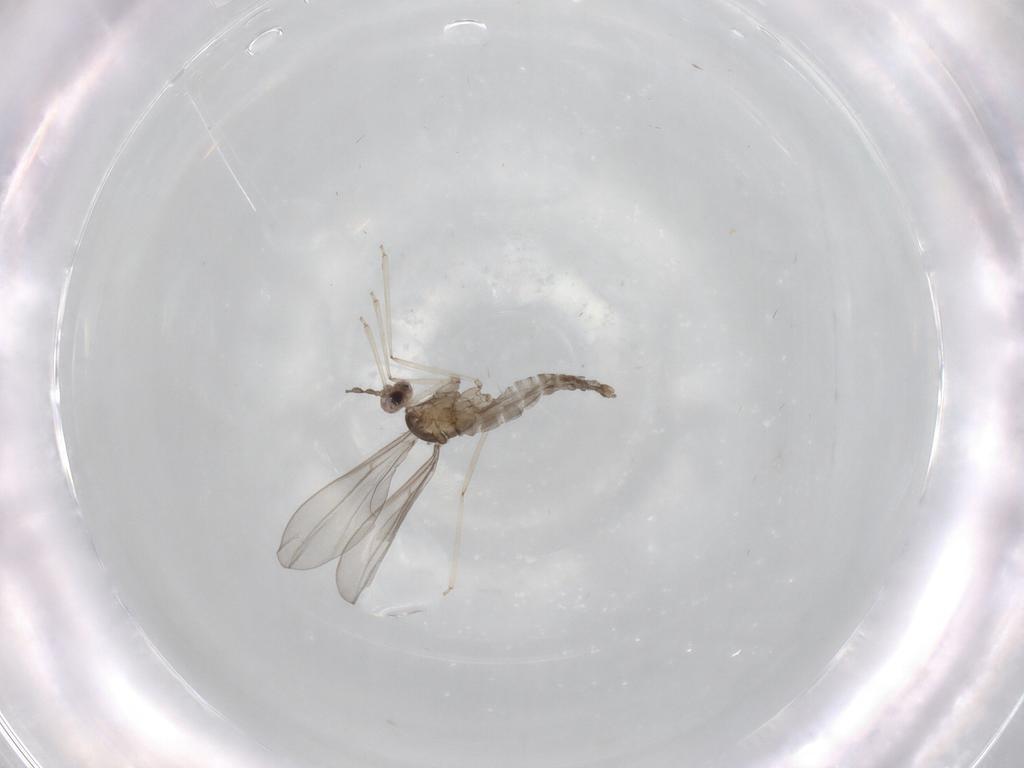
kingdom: Animalia
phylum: Arthropoda
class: Insecta
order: Diptera
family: Cecidomyiidae
